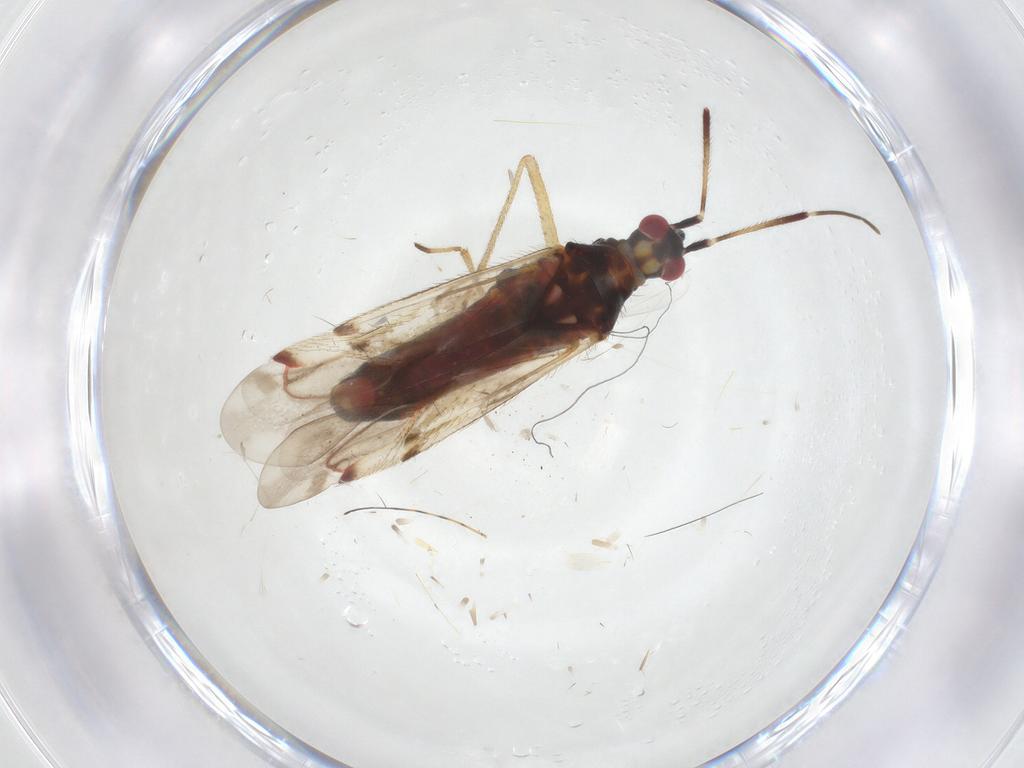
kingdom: Animalia
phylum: Arthropoda
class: Insecta
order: Hemiptera
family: Miridae
